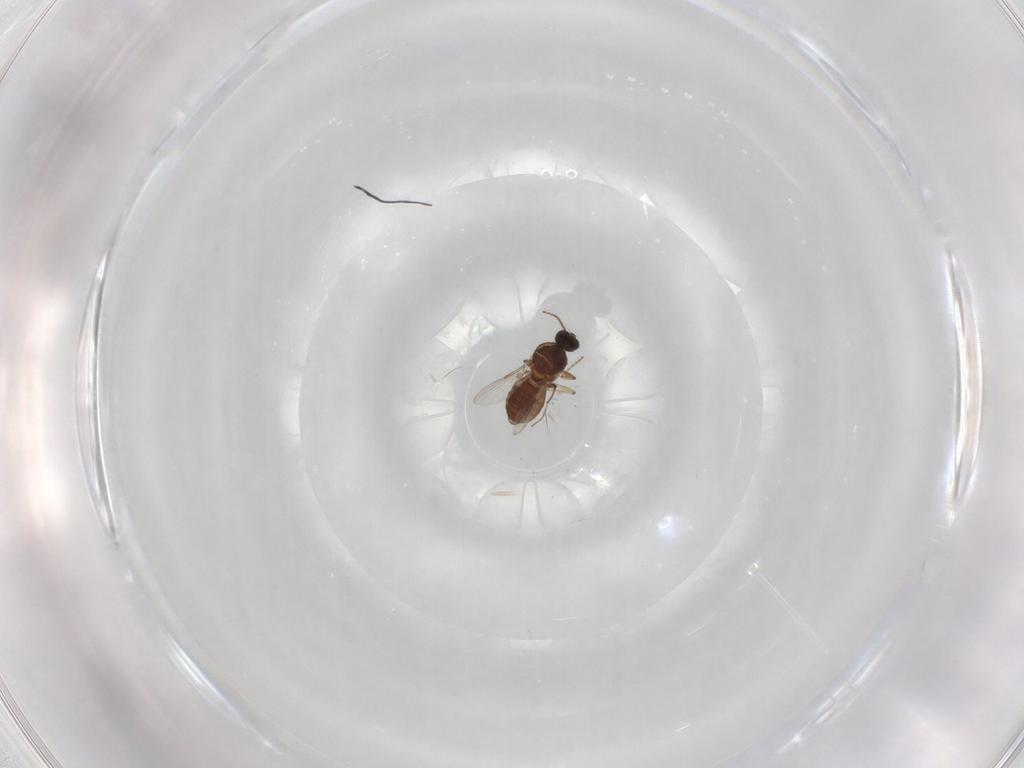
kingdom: Animalia
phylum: Arthropoda
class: Insecta
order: Diptera
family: Ceratopogonidae
